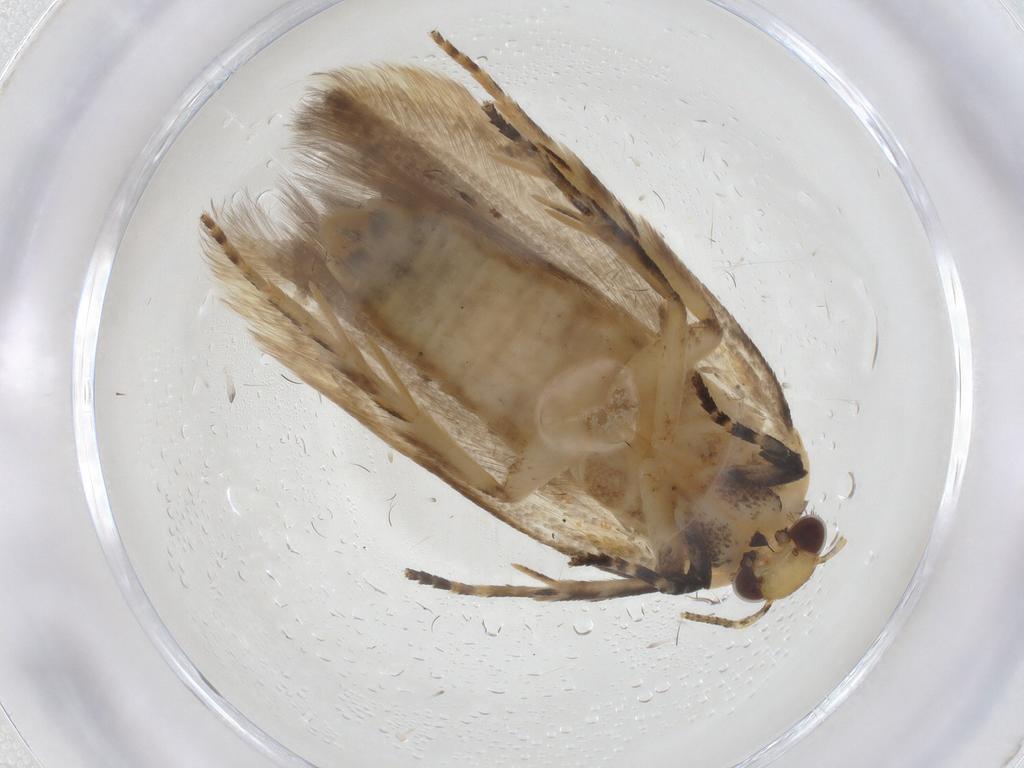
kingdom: Animalia
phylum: Arthropoda
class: Insecta
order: Lepidoptera
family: Gelechiidae
